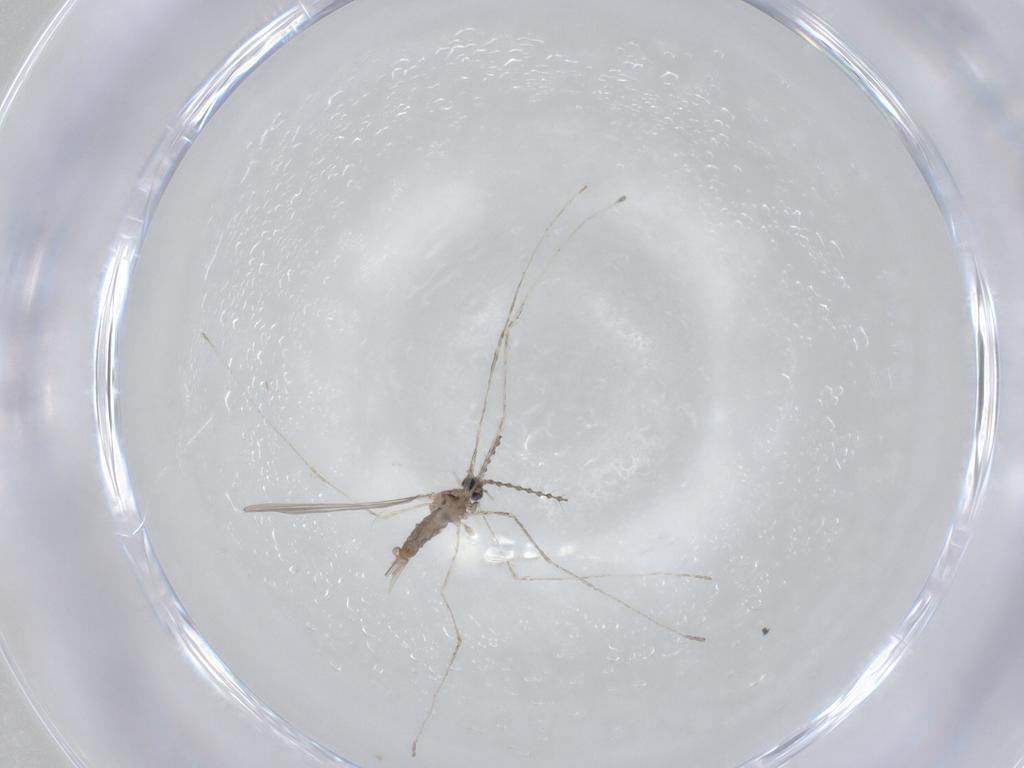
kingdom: Animalia
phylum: Arthropoda
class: Insecta
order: Diptera
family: Cecidomyiidae
